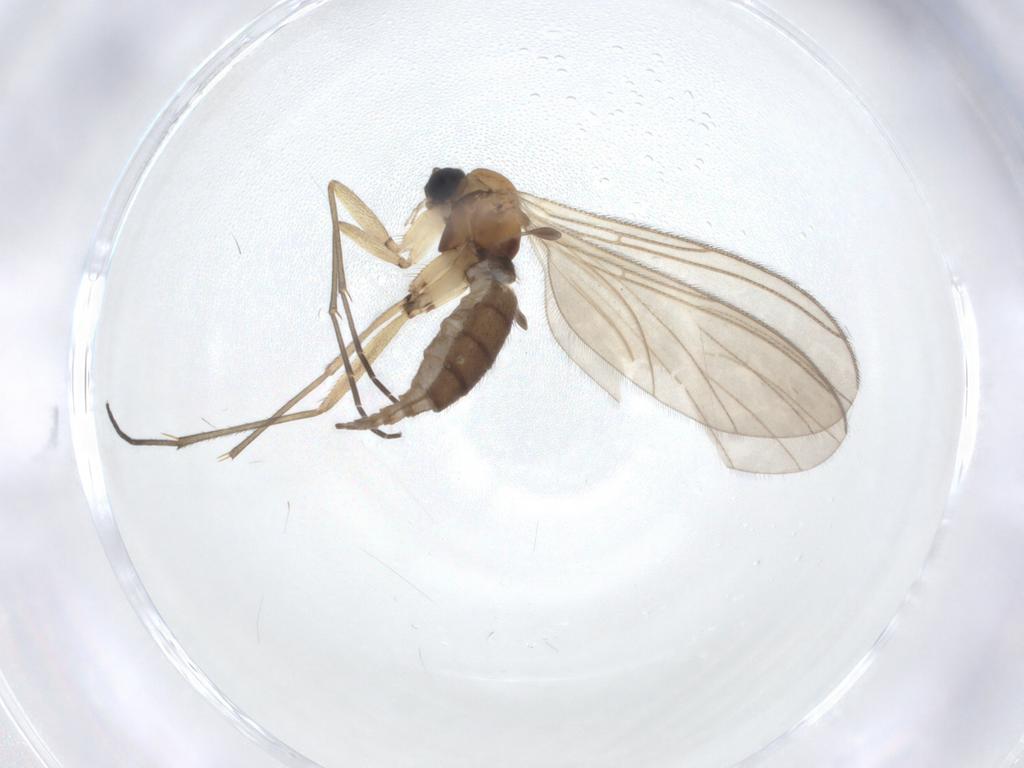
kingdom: Animalia
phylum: Arthropoda
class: Insecta
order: Diptera
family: Sciaridae
